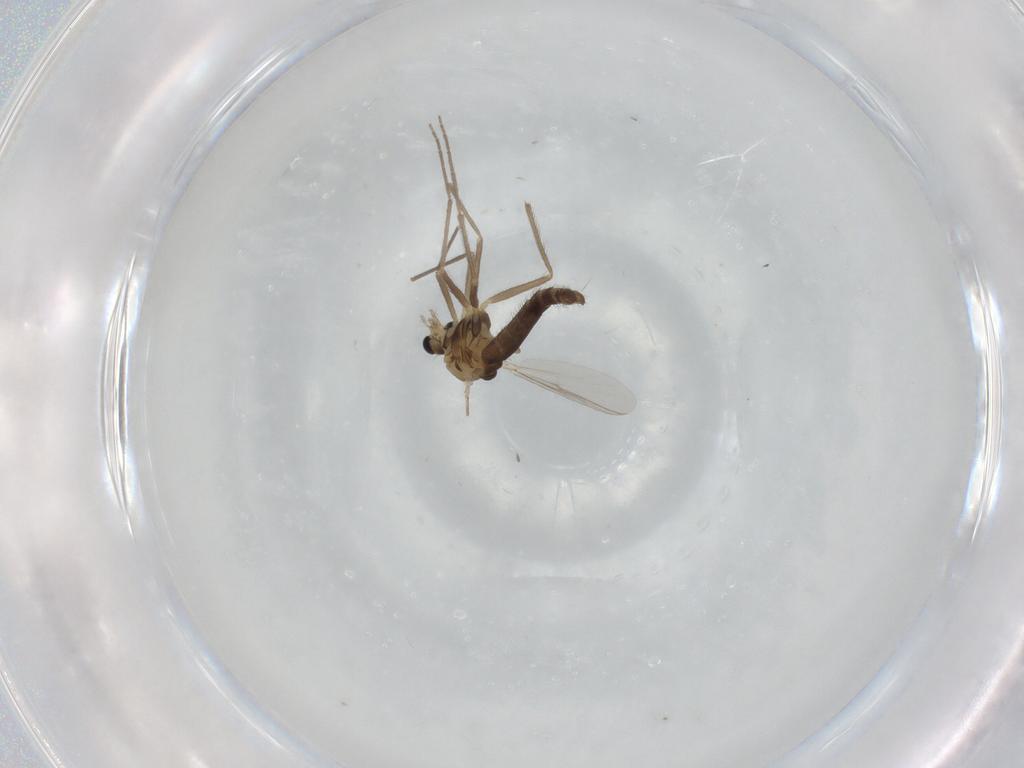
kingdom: Animalia
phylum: Arthropoda
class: Insecta
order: Diptera
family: Chironomidae
